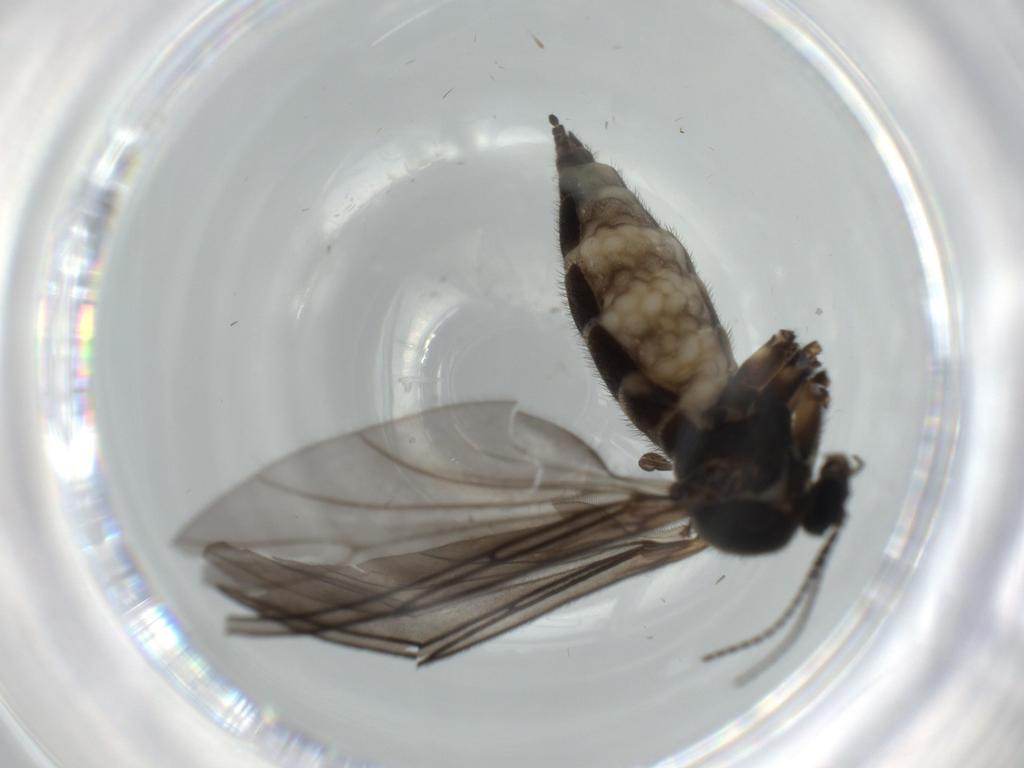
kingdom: Animalia
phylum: Arthropoda
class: Insecta
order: Diptera
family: Sciaridae
